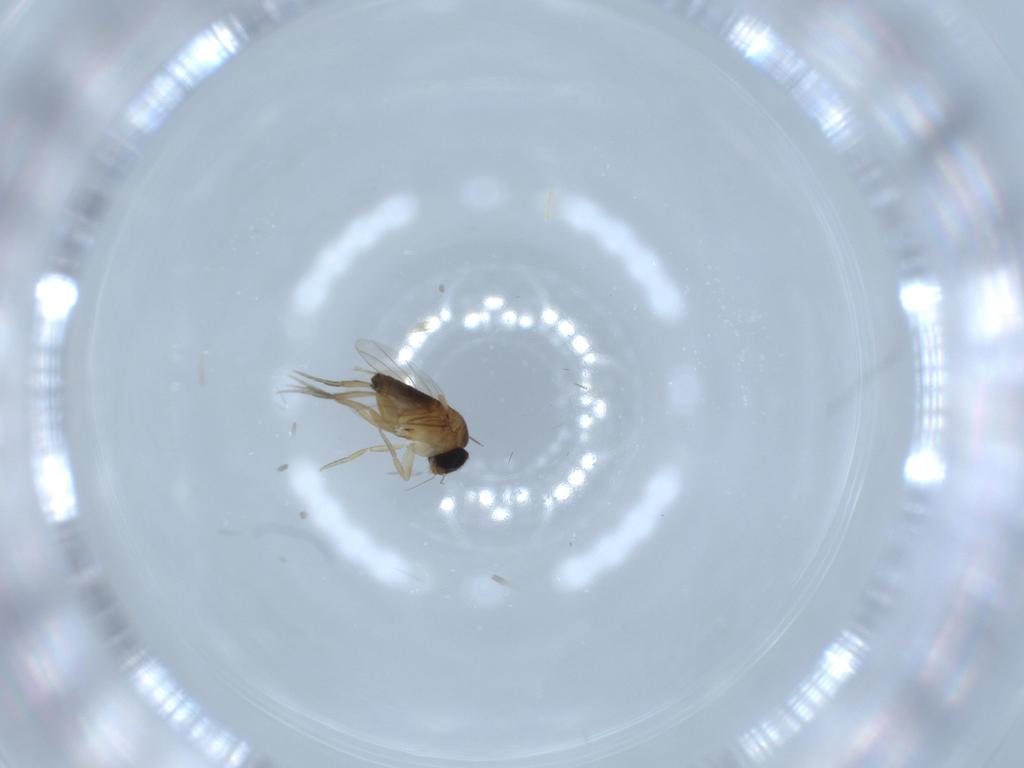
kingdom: Animalia
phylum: Arthropoda
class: Insecta
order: Diptera
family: Phoridae
